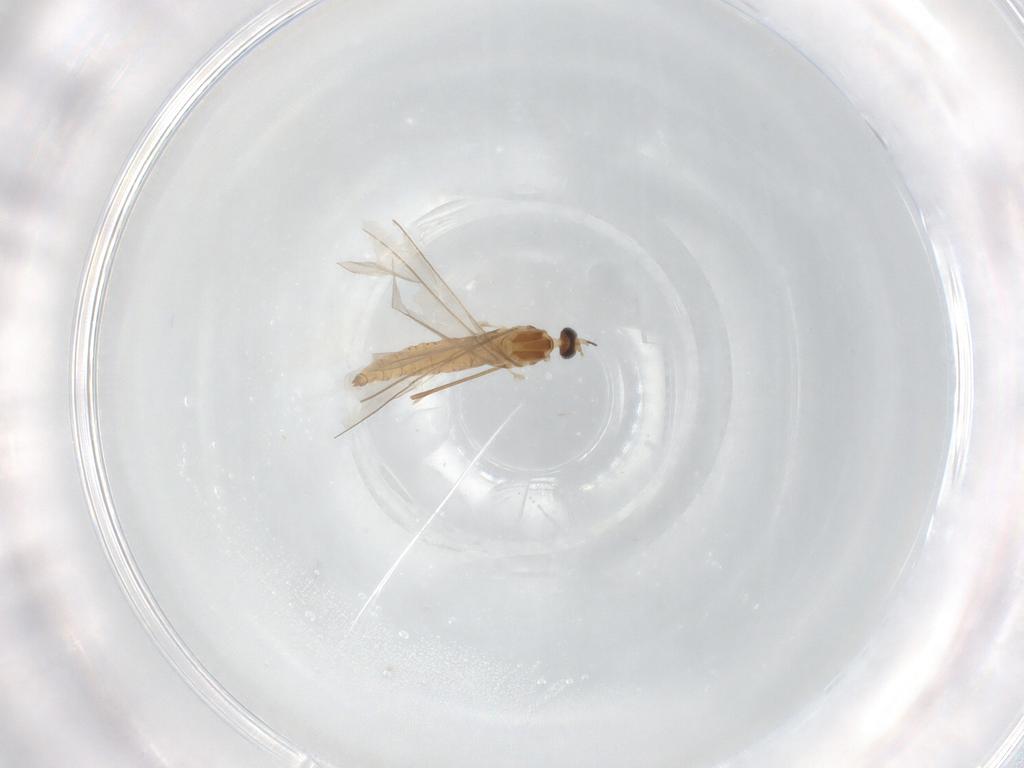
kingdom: Animalia
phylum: Arthropoda
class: Insecta
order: Diptera
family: Cecidomyiidae
